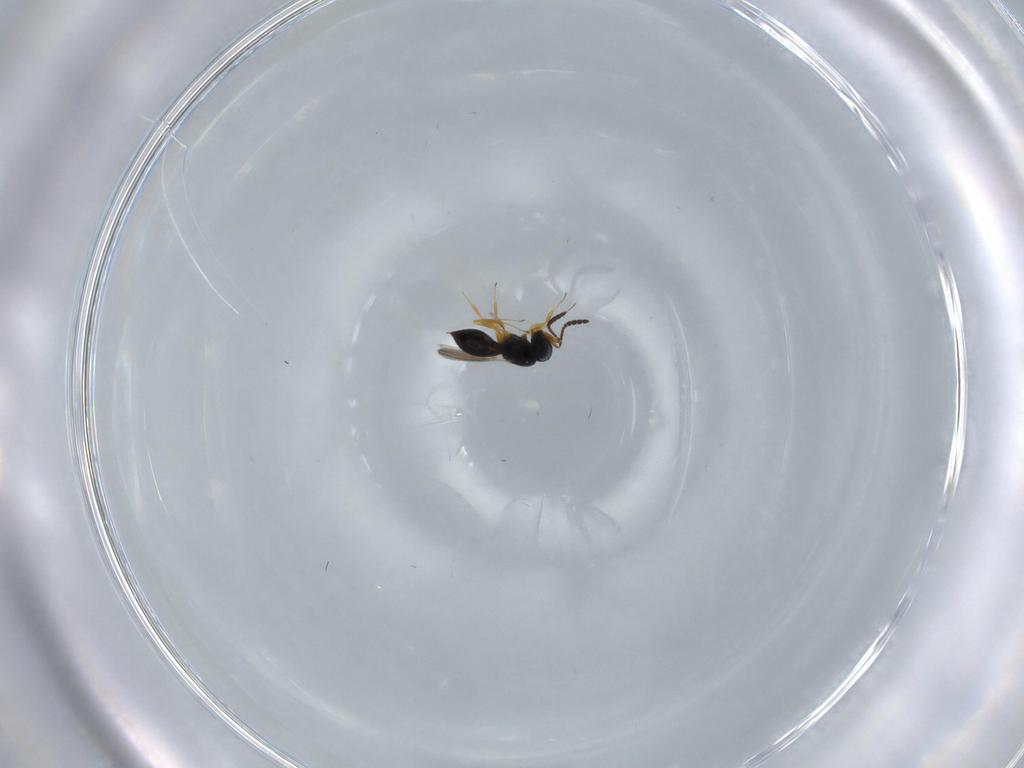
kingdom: Animalia
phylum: Arthropoda
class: Insecta
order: Hymenoptera
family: Scelionidae
